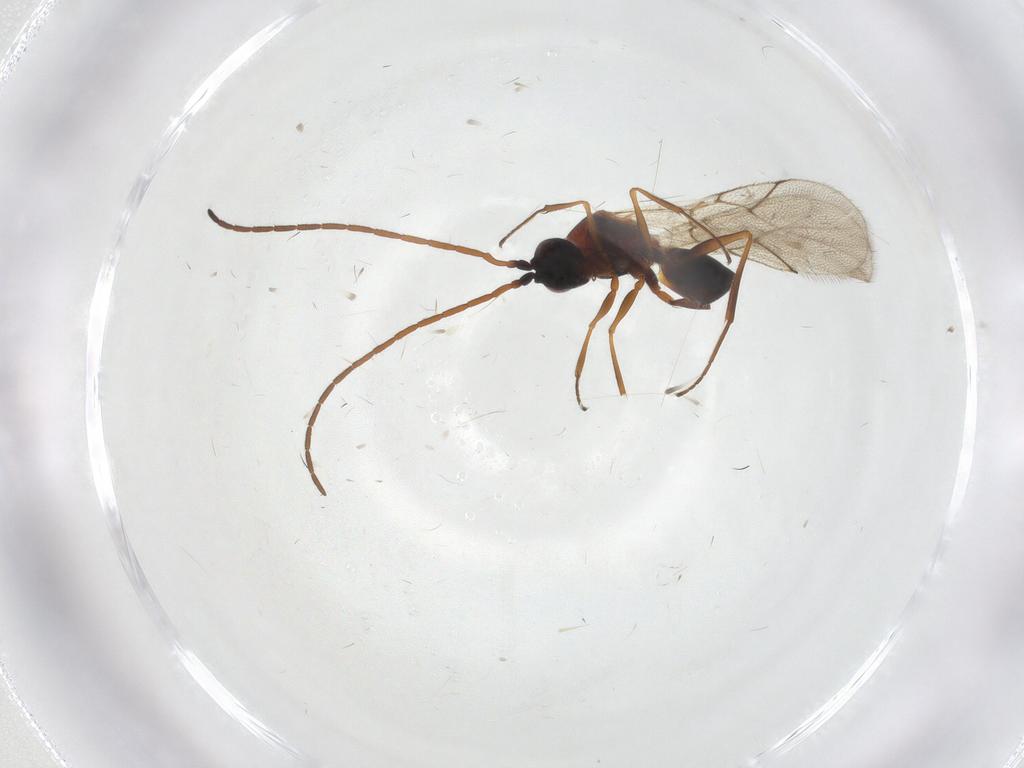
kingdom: Animalia
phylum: Arthropoda
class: Insecta
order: Hymenoptera
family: Figitidae
